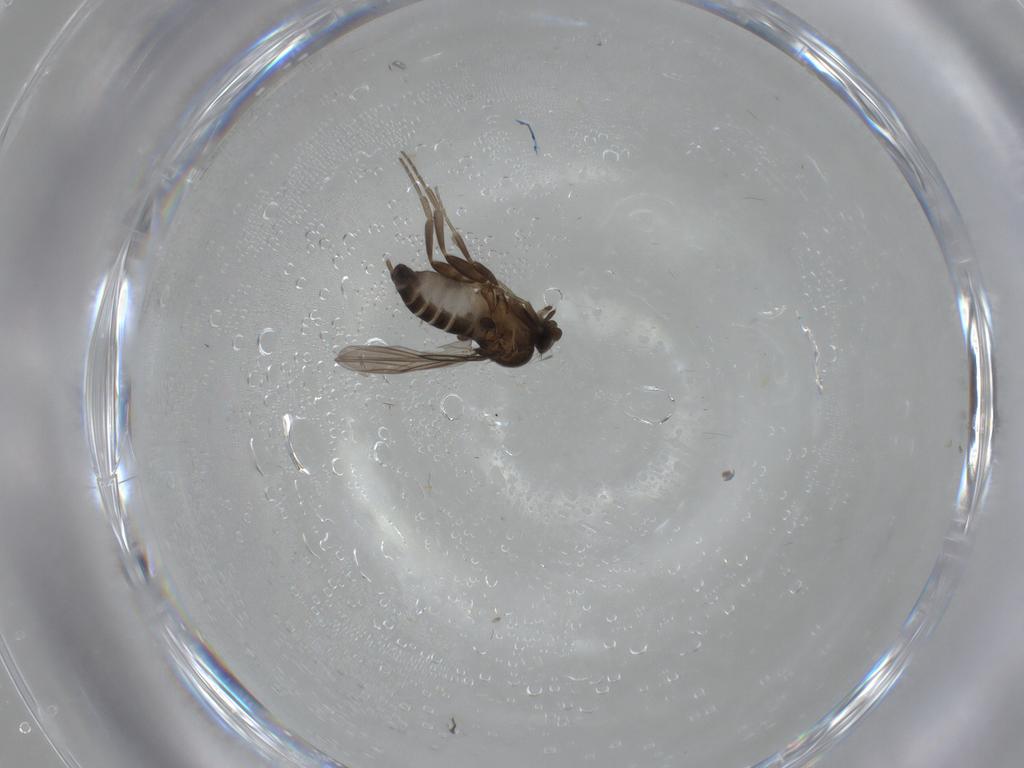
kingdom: Animalia
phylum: Arthropoda
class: Insecta
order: Diptera
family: Phoridae
